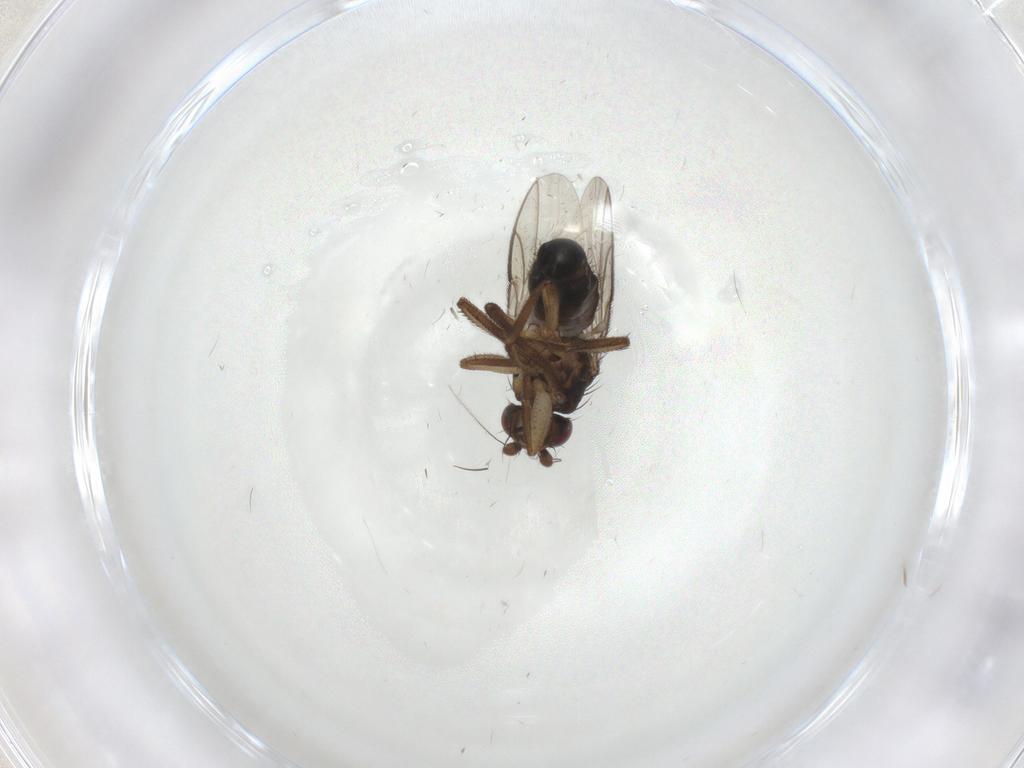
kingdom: Animalia
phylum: Arthropoda
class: Insecta
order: Diptera
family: Sphaeroceridae
